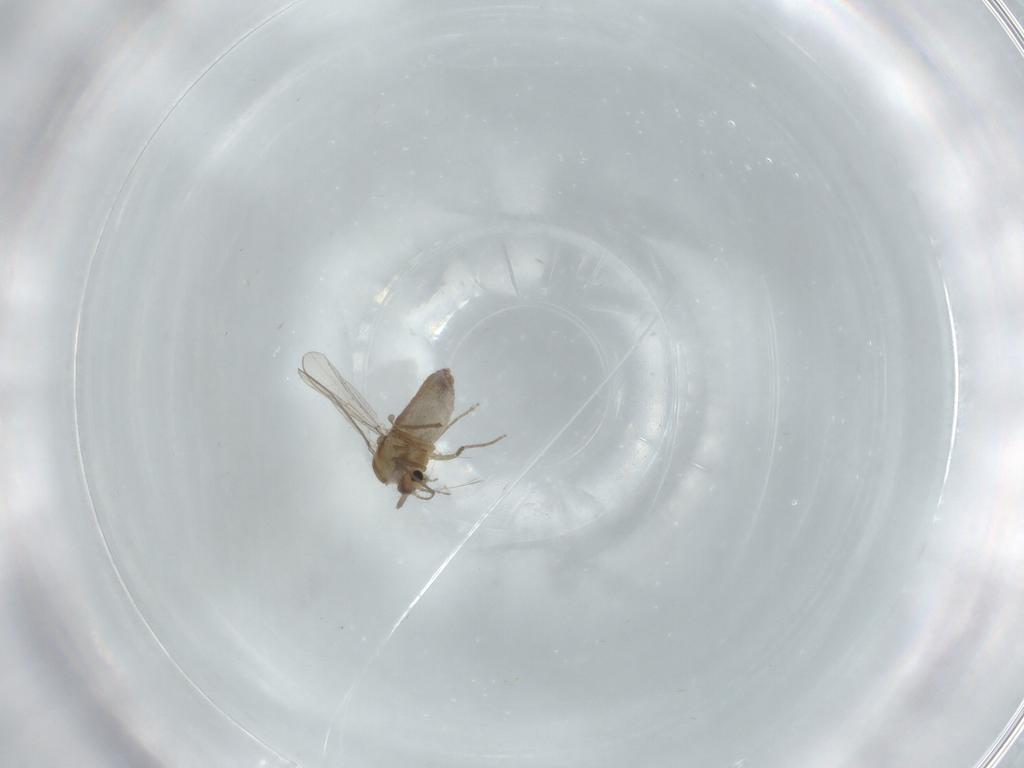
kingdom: Animalia
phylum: Arthropoda
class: Insecta
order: Diptera
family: Chironomidae
